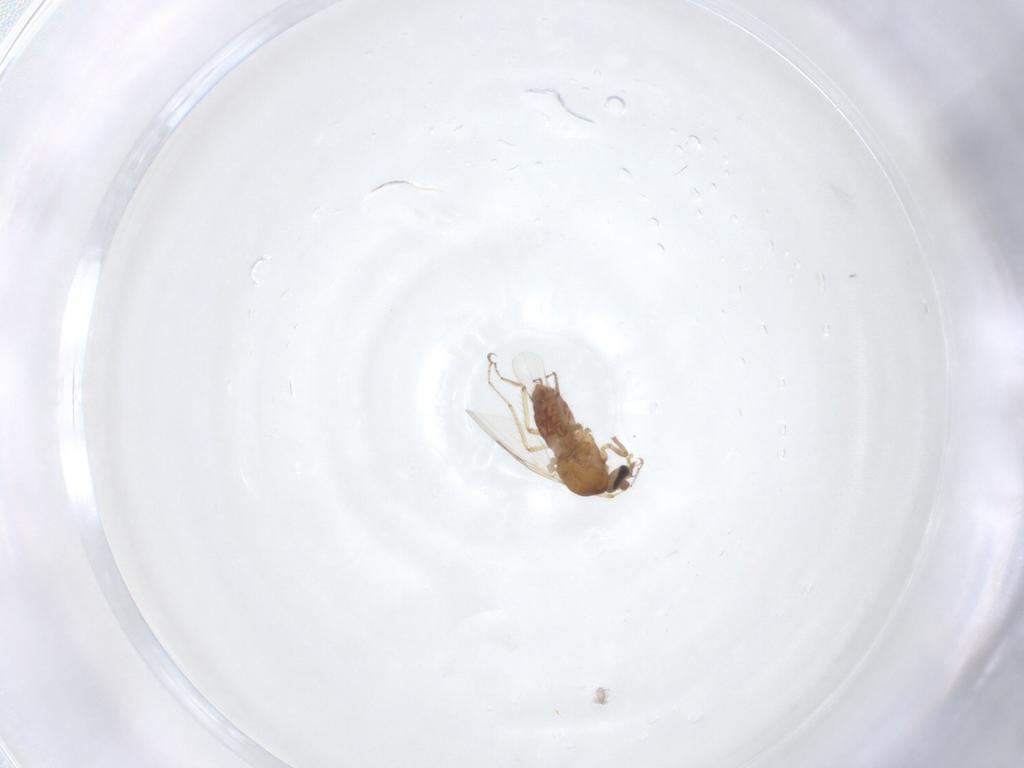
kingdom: Animalia
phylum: Arthropoda
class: Insecta
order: Diptera
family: Ceratopogonidae
